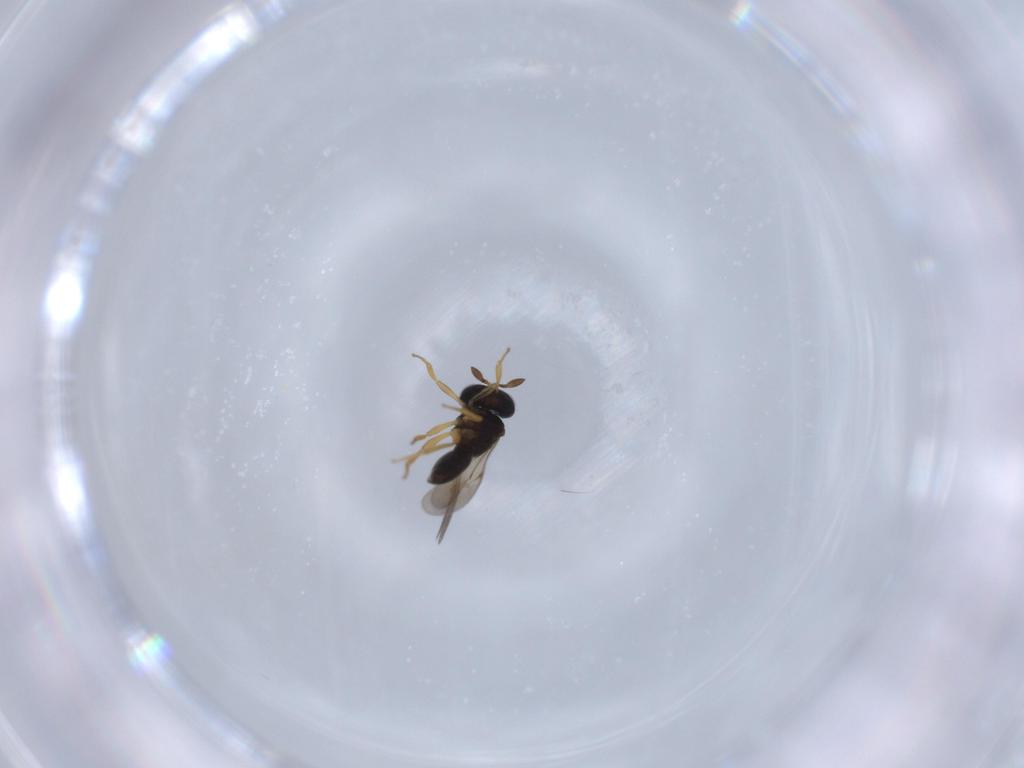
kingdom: Animalia
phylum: Arthropoda
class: Insecta
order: Hymenoptera
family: Scelionidae
